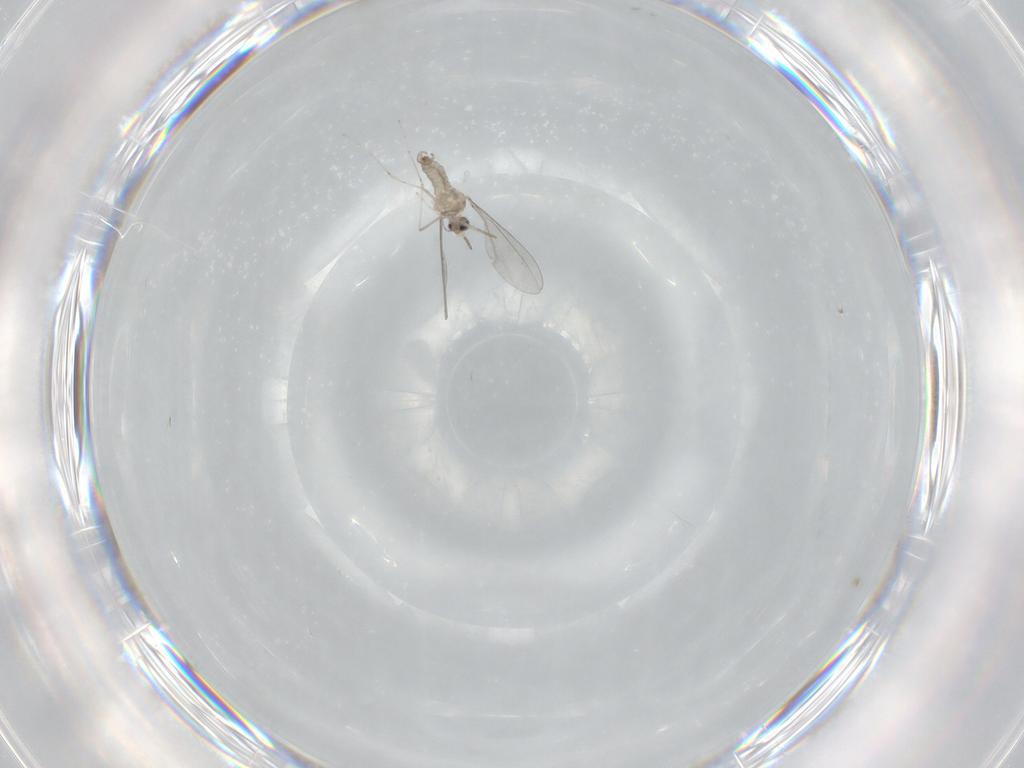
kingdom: Animalia
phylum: Arthropoda
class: Insecta
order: Diptera
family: Cecidomyiidae
